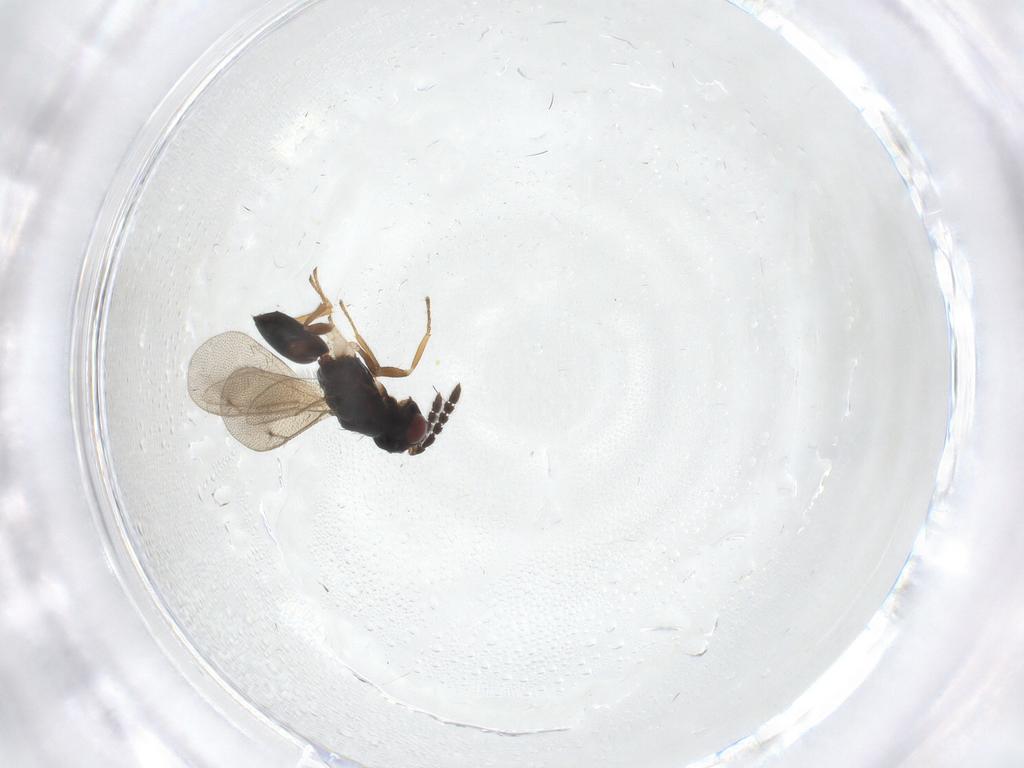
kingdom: Animalia
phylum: Arthropoda
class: Insecta
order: Hymenoptera
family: Eulophidae
